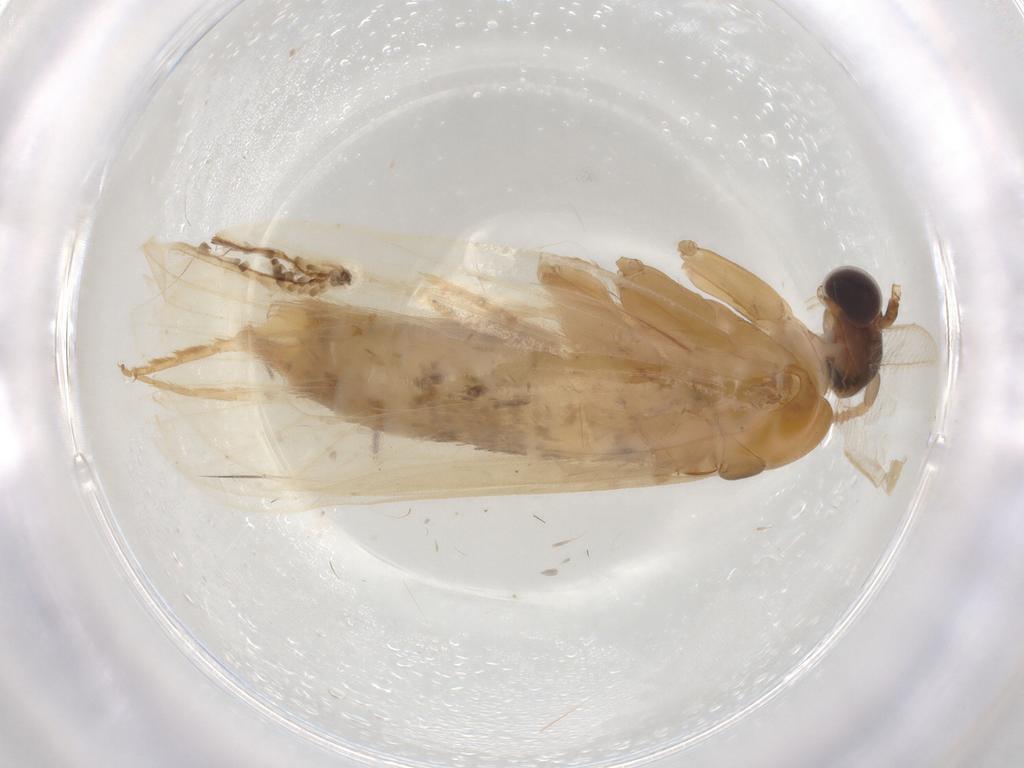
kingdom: Animalia
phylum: Arthropoda
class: Insecta
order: Lepidoptera
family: Eriocottidae
